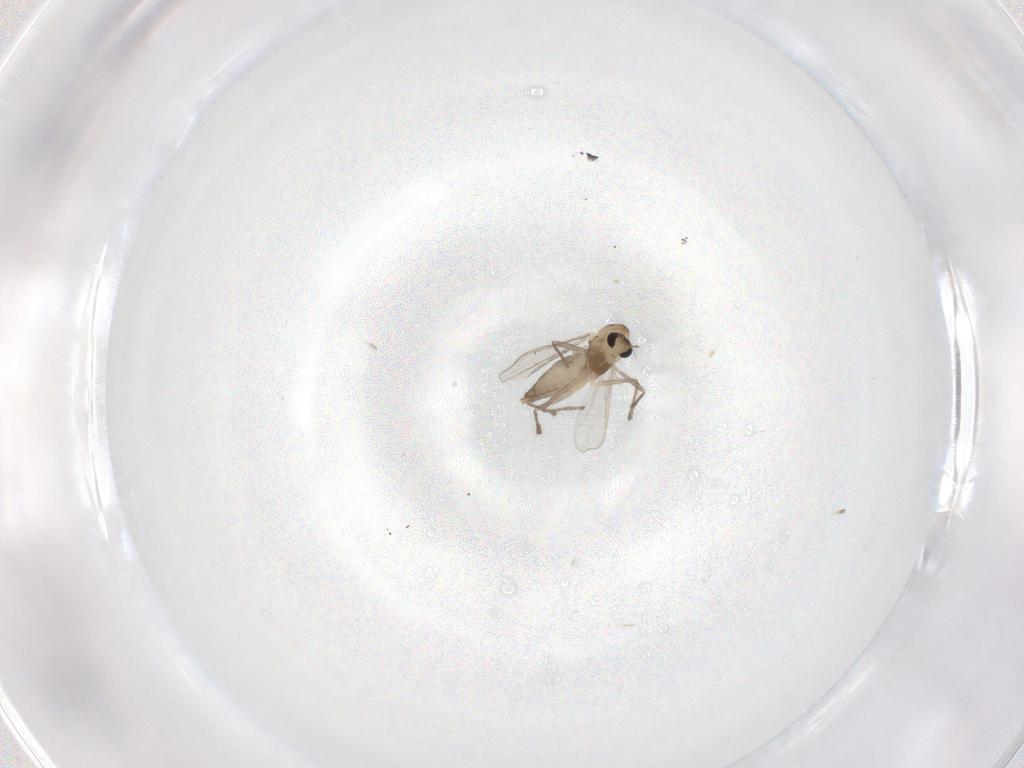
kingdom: Animalia
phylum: Arthropoda
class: Insecta
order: Diptera
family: Chironomidae
